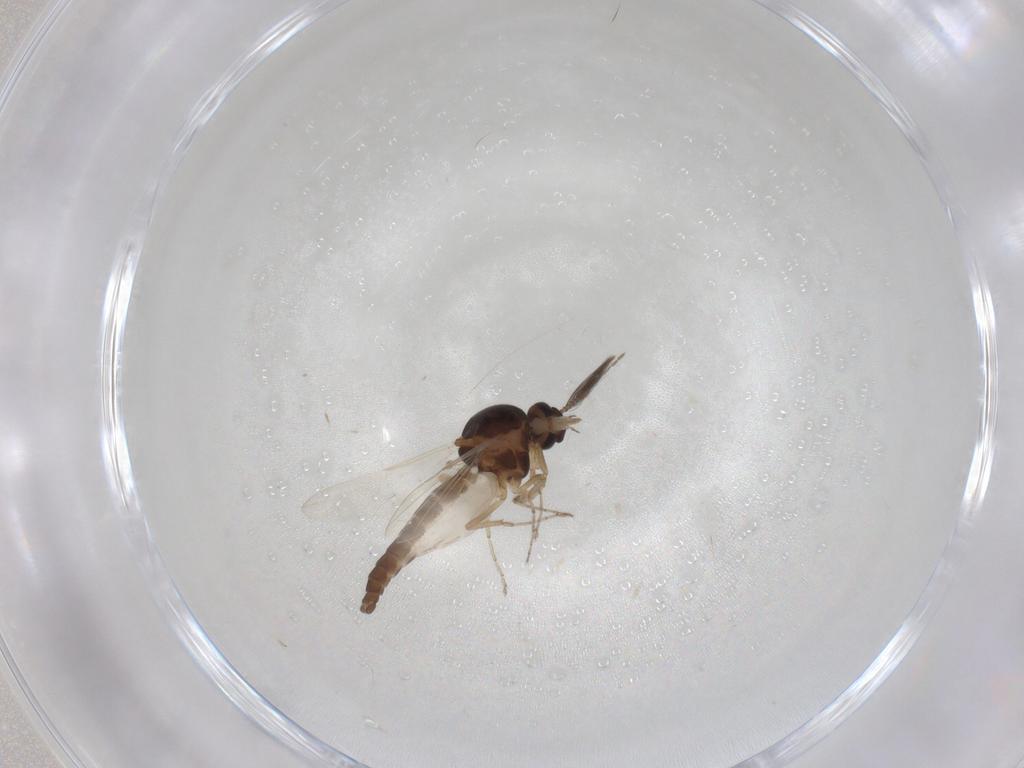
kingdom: Animalia
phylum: Arthropoda
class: Insecta
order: Diptera
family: Ceratopogonidae
